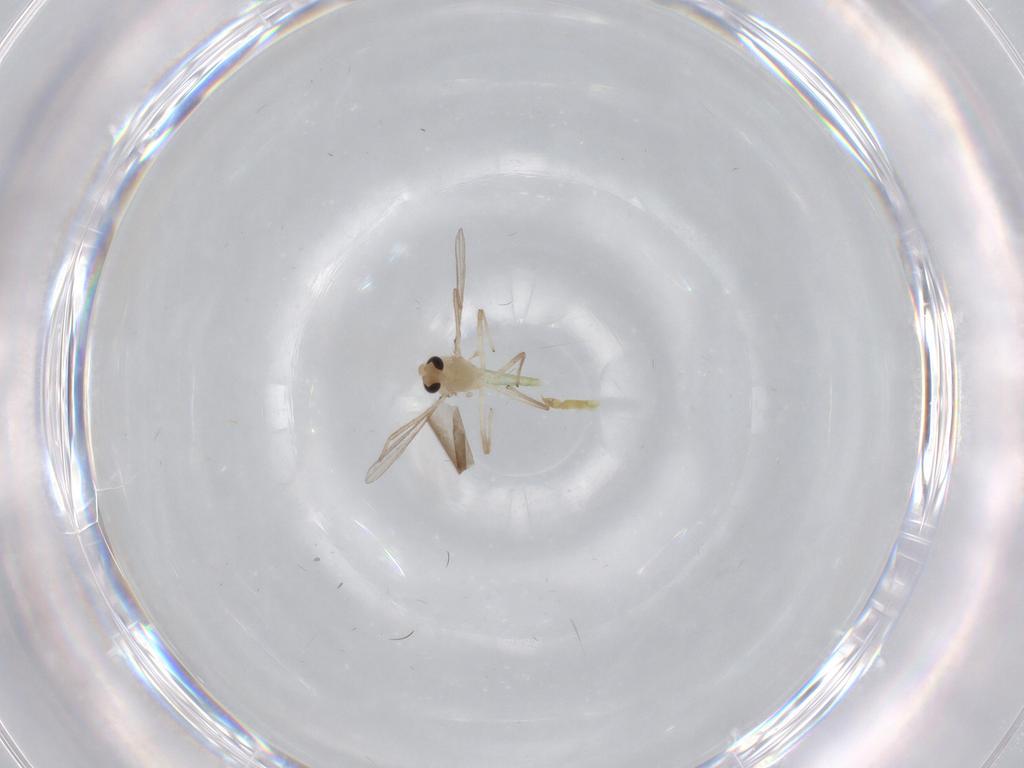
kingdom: Animalia
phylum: Arthropoda
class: Insecta
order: Diptera
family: Chironomidae
